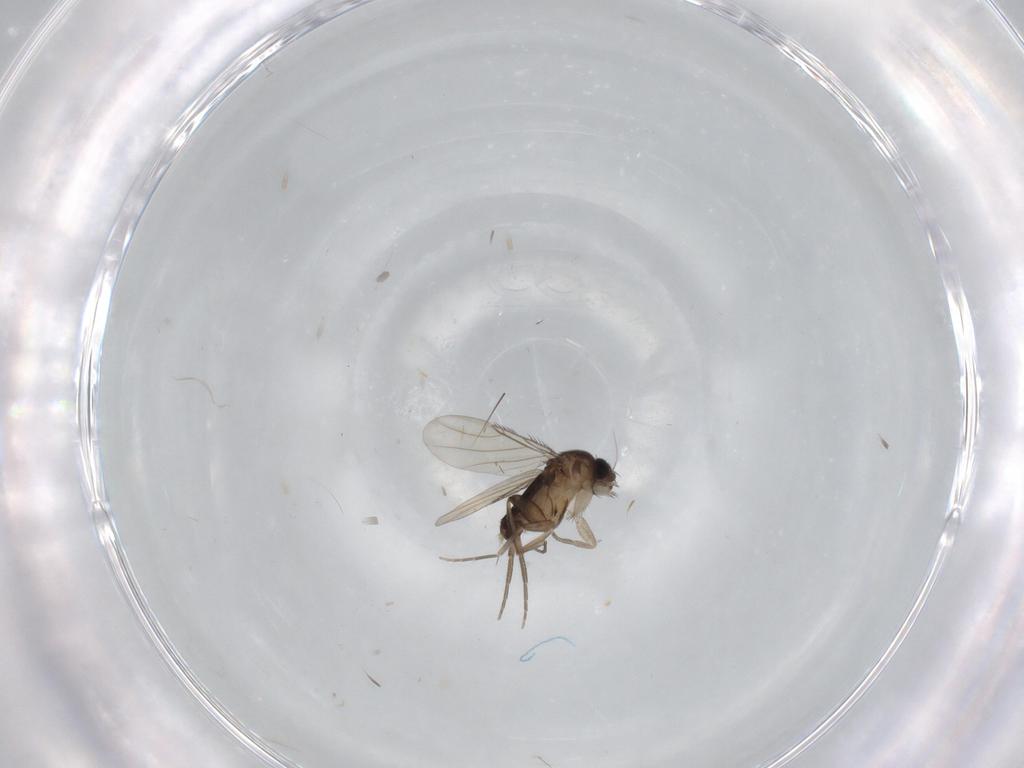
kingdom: Animalia
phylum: Arthropoda
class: Insecta
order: Diptera
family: Phoridae
